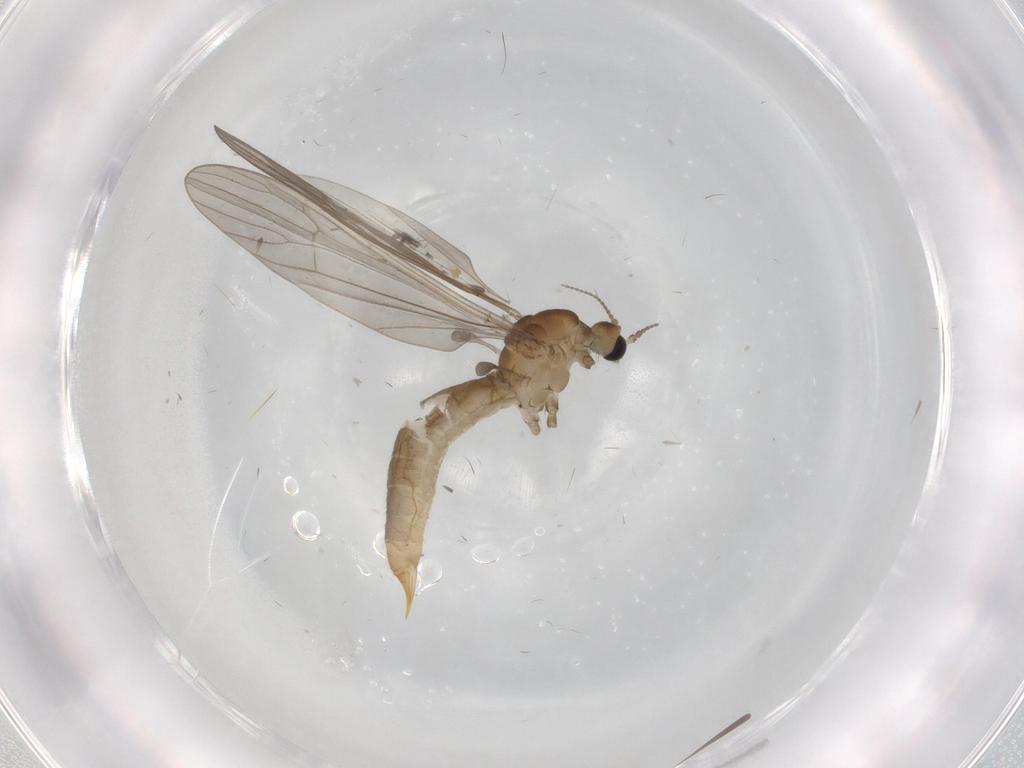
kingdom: Animalia
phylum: Arthropoda
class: Insecta
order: Diptera
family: Limoniidae
